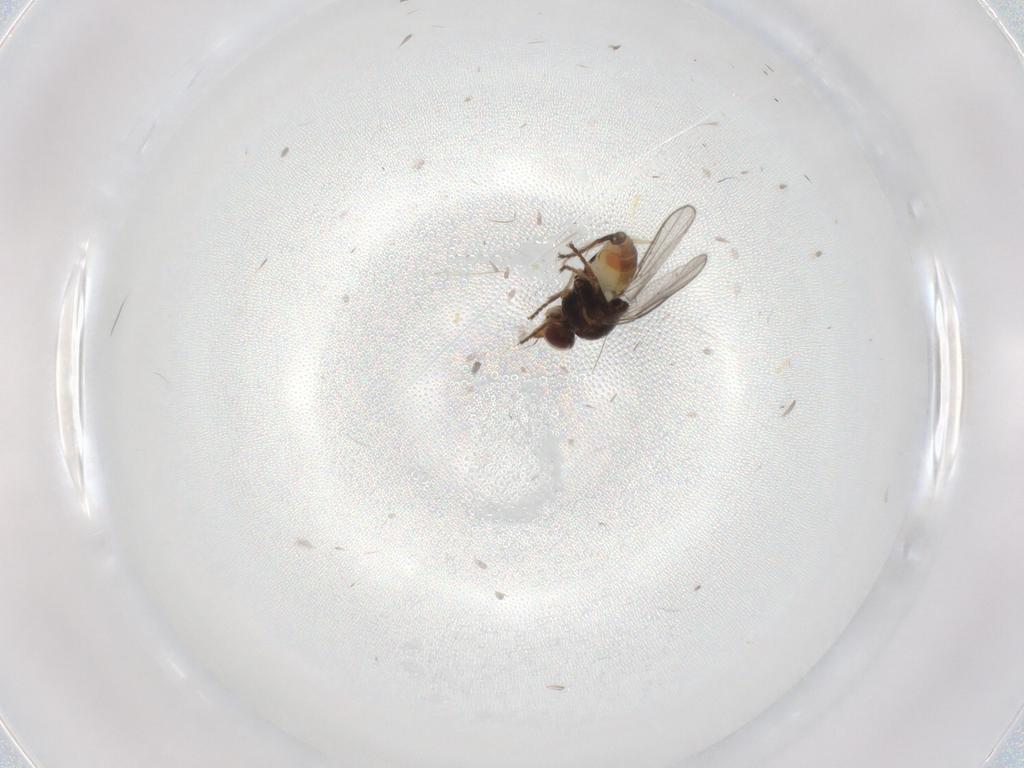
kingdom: Animalia
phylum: Arthropoda
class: Insecta
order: Diptera
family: Chloropidae
